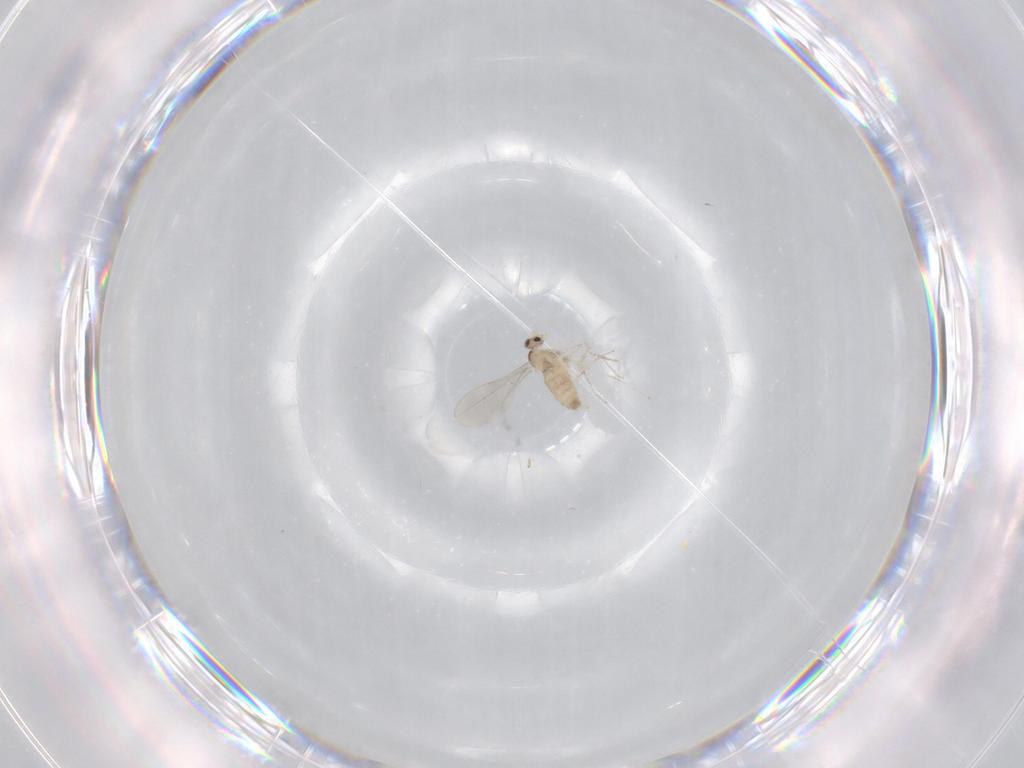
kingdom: Animalia
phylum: Arthropoda
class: Insecta
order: Diptera
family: Cecidomyiidae
